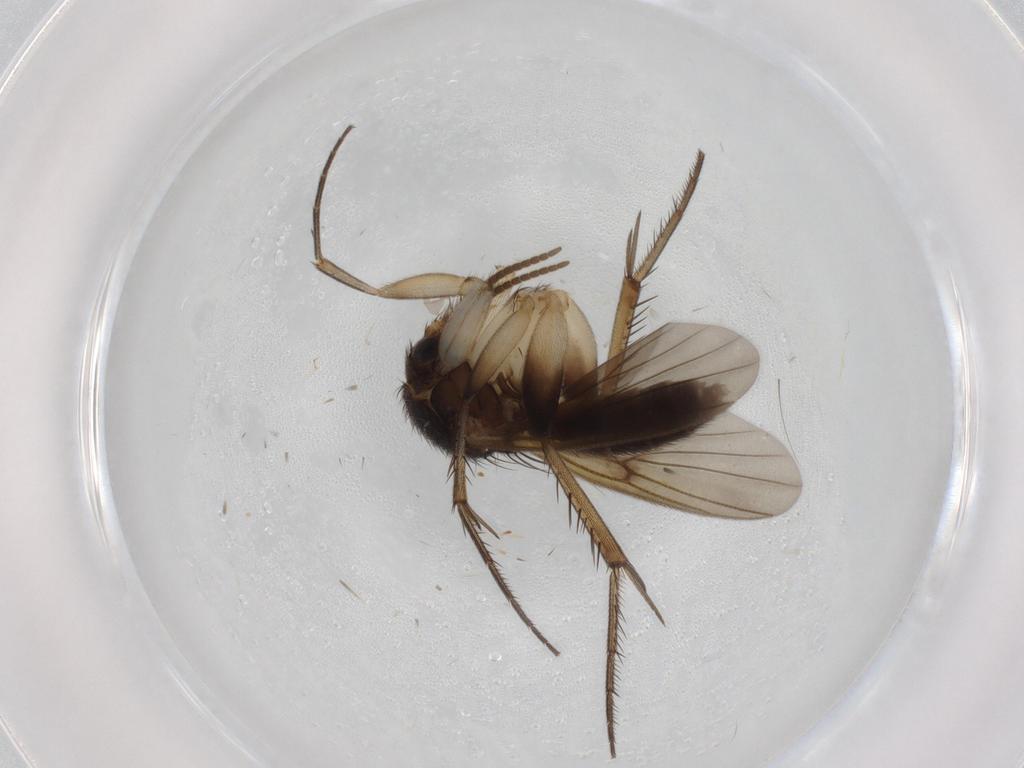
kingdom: Animalia
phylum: Arthropoda
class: Insecta
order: Diptera
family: Mycetophilidae
